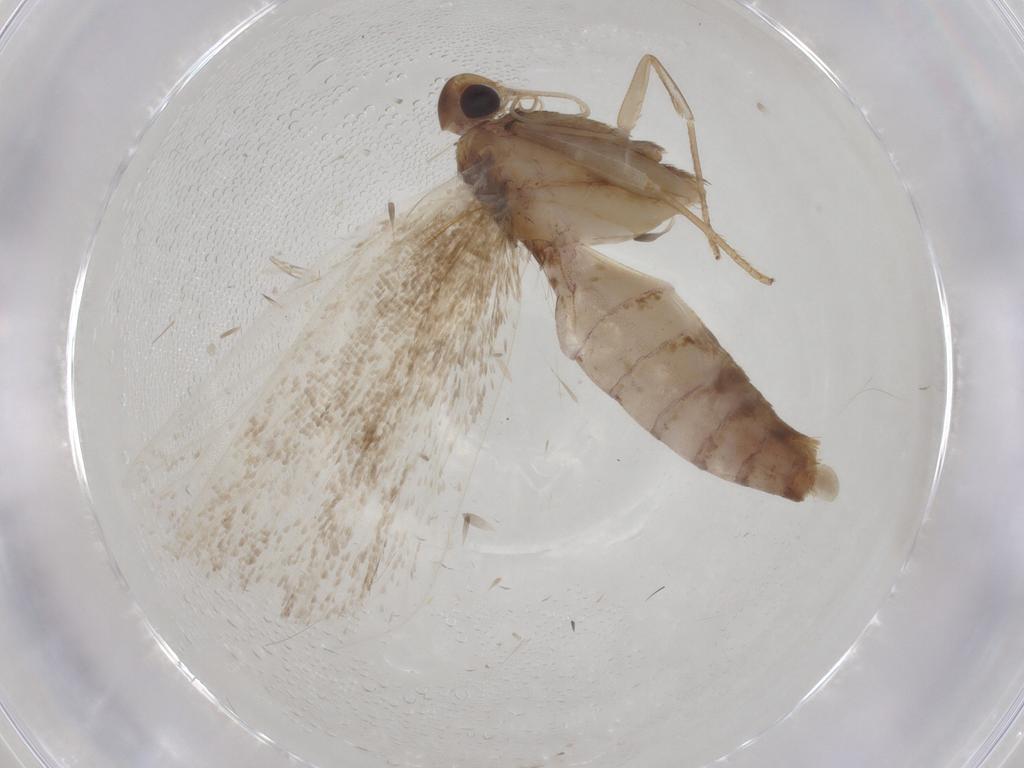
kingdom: Animalia
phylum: Arthropoda
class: Insecta
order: Lepidoptera
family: Gelechiidae
